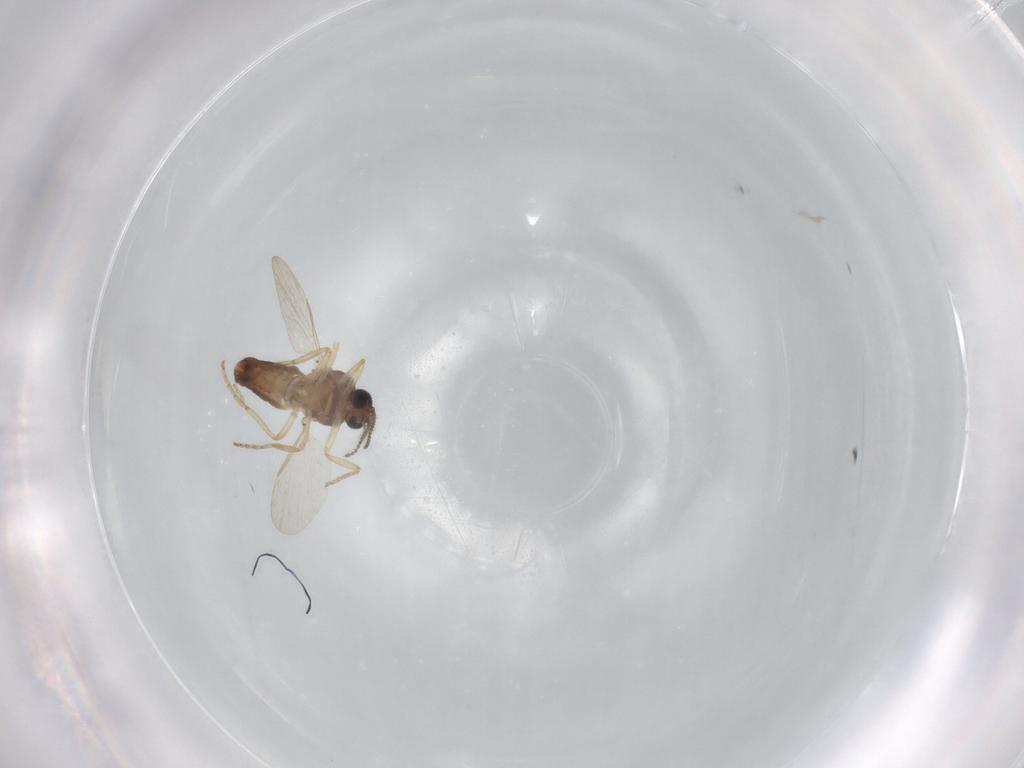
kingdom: Animalia
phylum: Arthropoda
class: Insecta
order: Diptera
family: Ceratopogonidae
